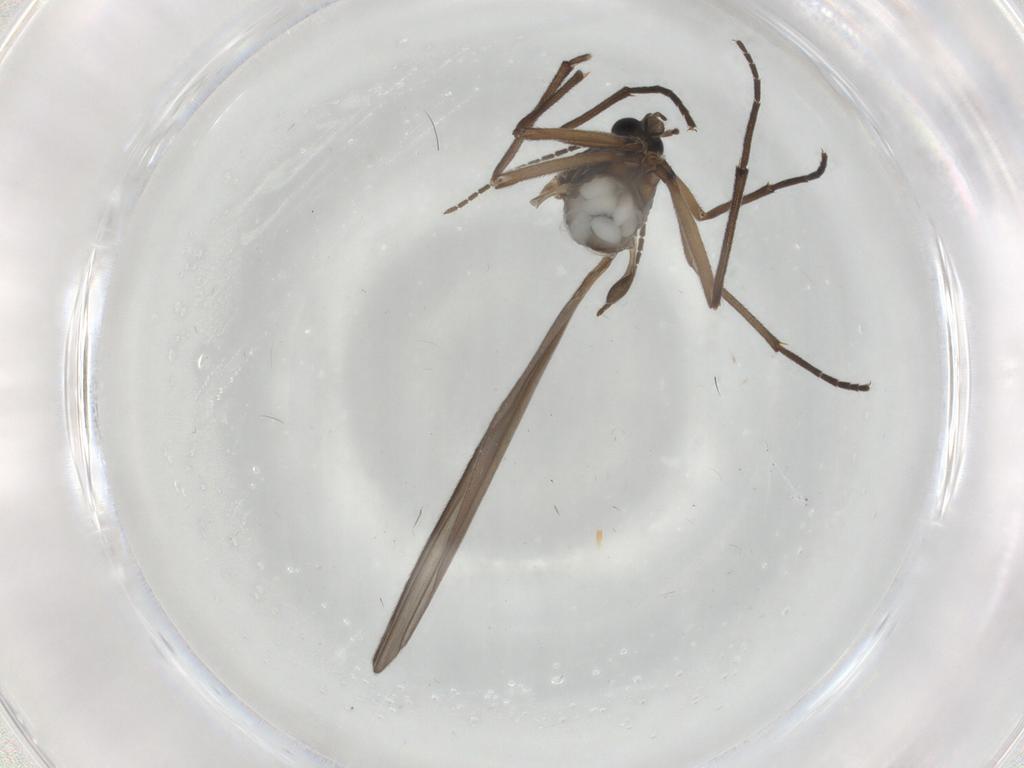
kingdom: Animalia
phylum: Arthropoda
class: Insecta
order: Diptera
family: Sciaridae
